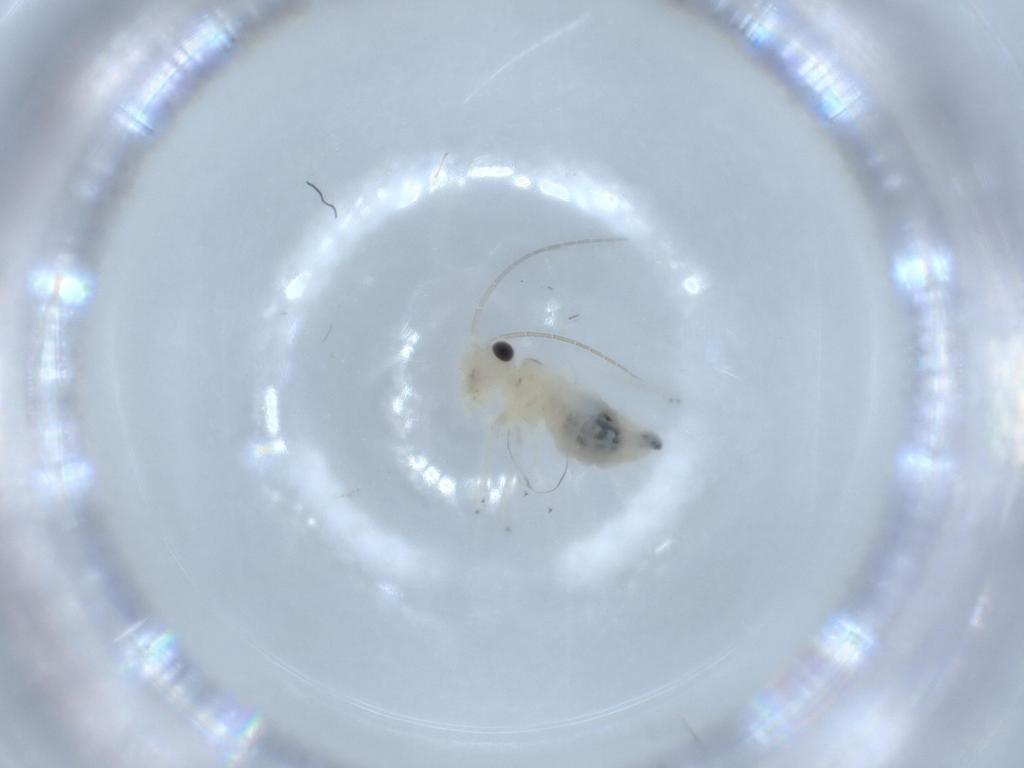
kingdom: Animalia
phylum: Arthropoda
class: Insecta
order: Psocodea
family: Caeciliusidae
